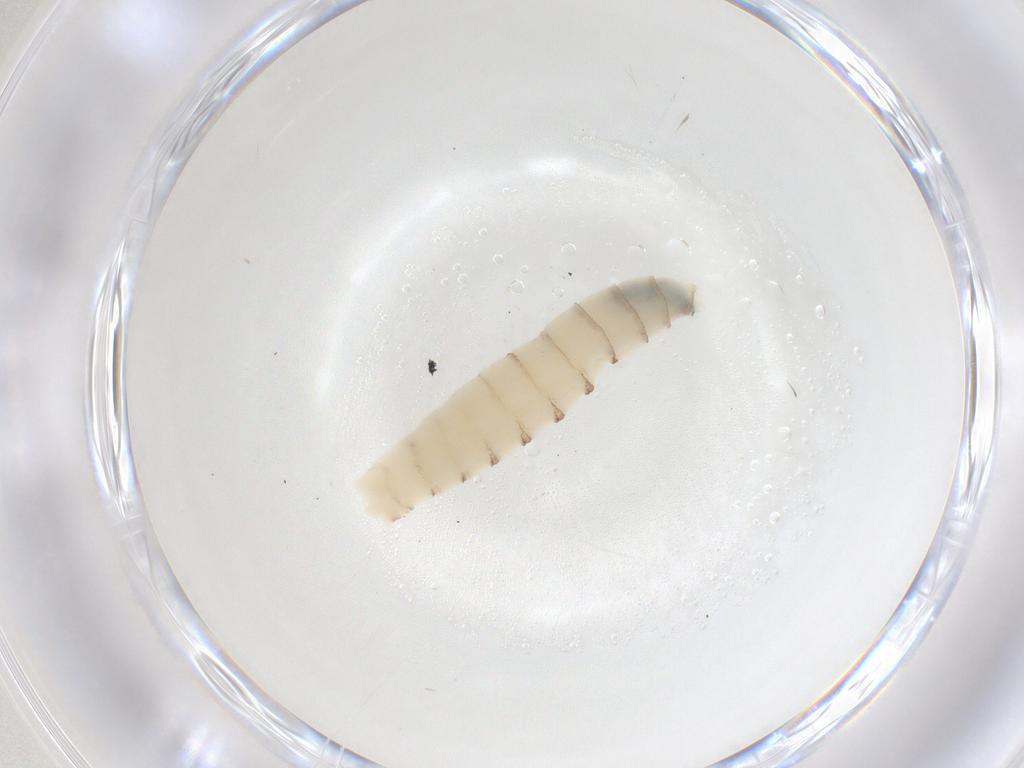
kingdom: Animalia
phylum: Arthropoda
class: Insecta
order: Diptera
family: Sarcophagidae
